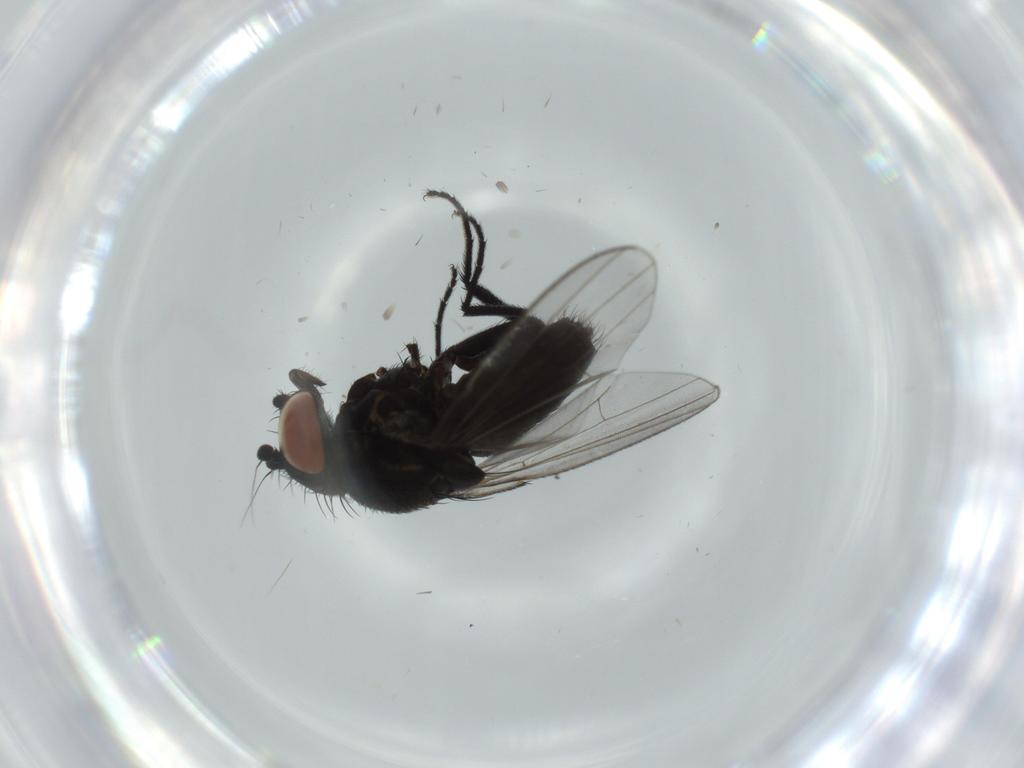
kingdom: Animalia
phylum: Arthropoda
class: Insecta
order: Diptera
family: Milichiidae
